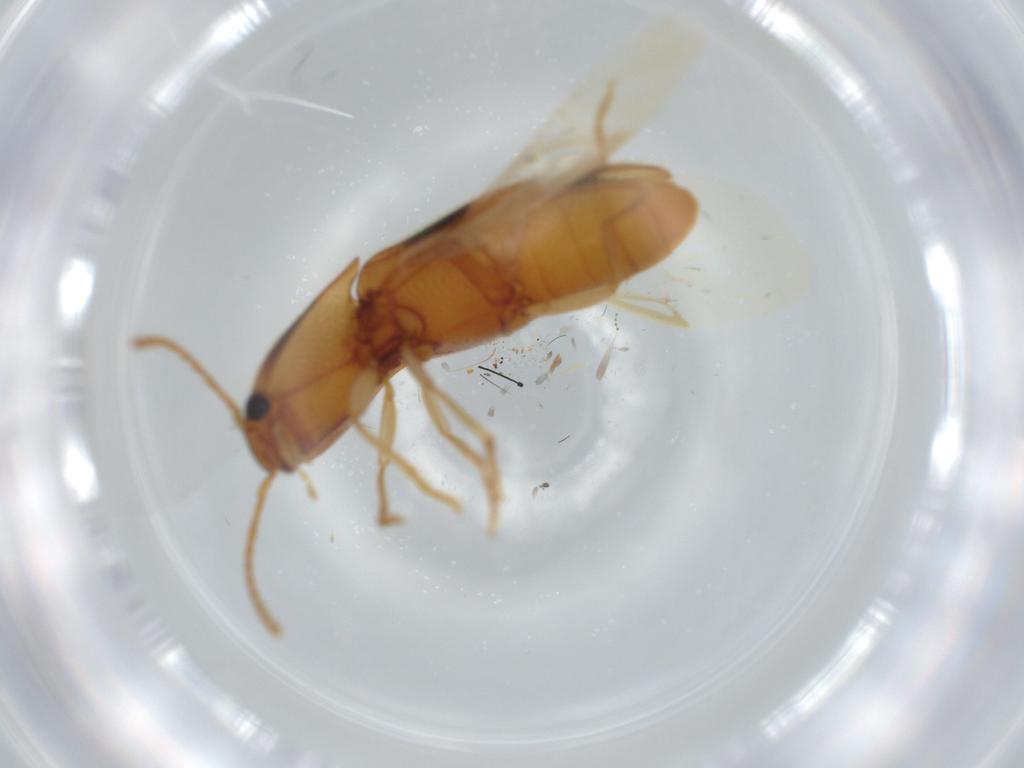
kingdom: Animalia
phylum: Arthropoda
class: Insecta
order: Coleoptera
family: Elateridae
